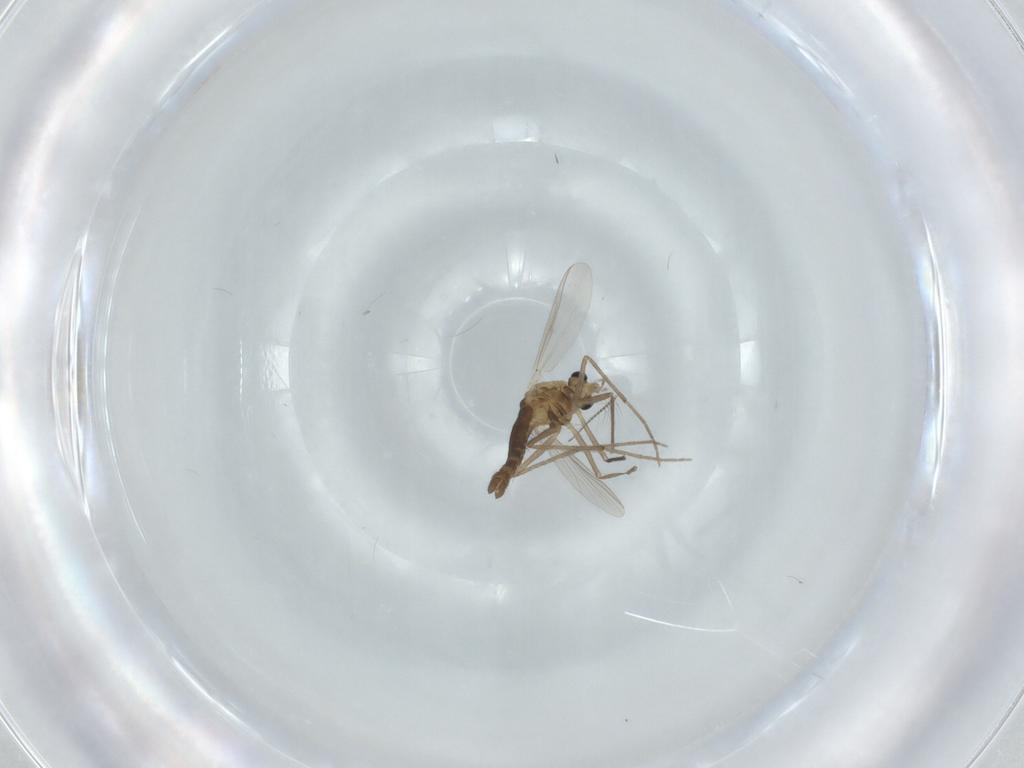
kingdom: Animalia
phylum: Arthropoda
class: Insecta
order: Diptera
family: Chironomidae
